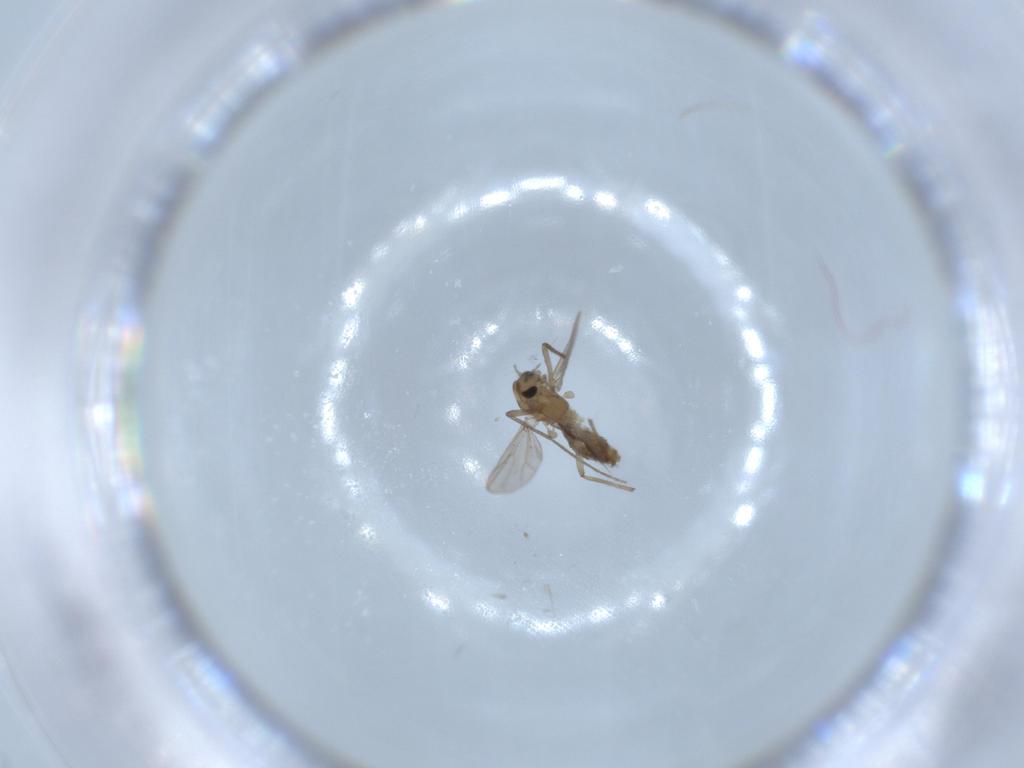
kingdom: Animalia
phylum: Arthropoda
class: Insecta
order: Diptera
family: Chironomidae
